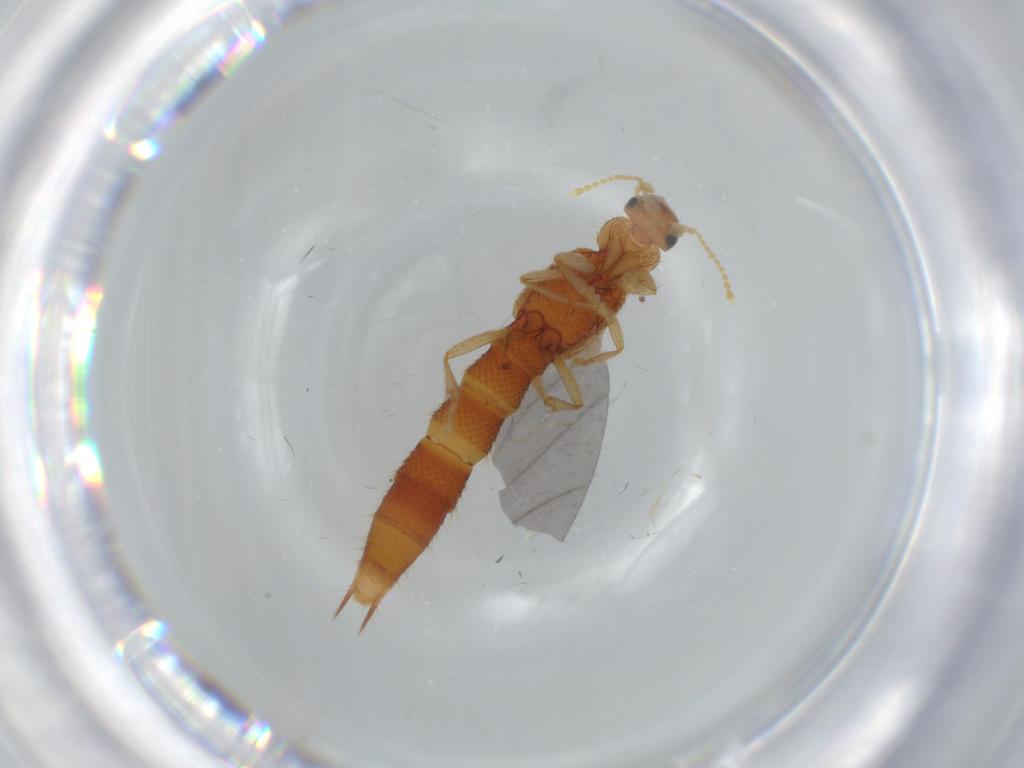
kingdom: Animalia
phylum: Arthropoda
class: Insecta
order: Coleoptera
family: Staphylinidae
